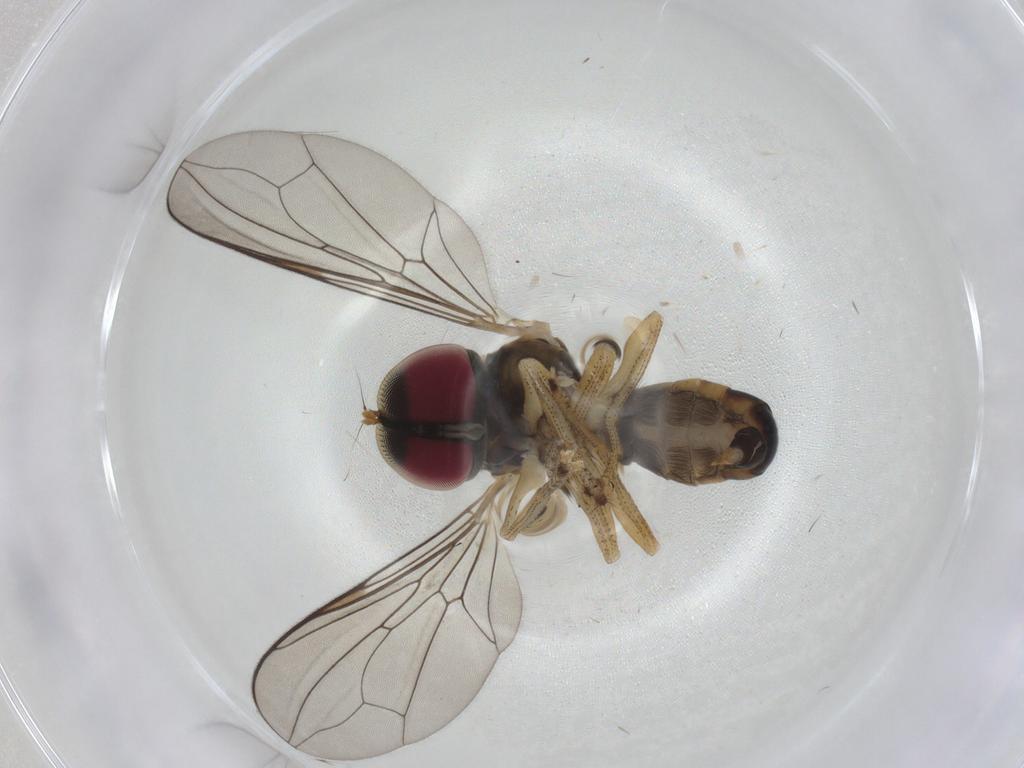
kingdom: Animalia
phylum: Arthropoda
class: Insecta
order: Diptera
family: Pipunculidae
